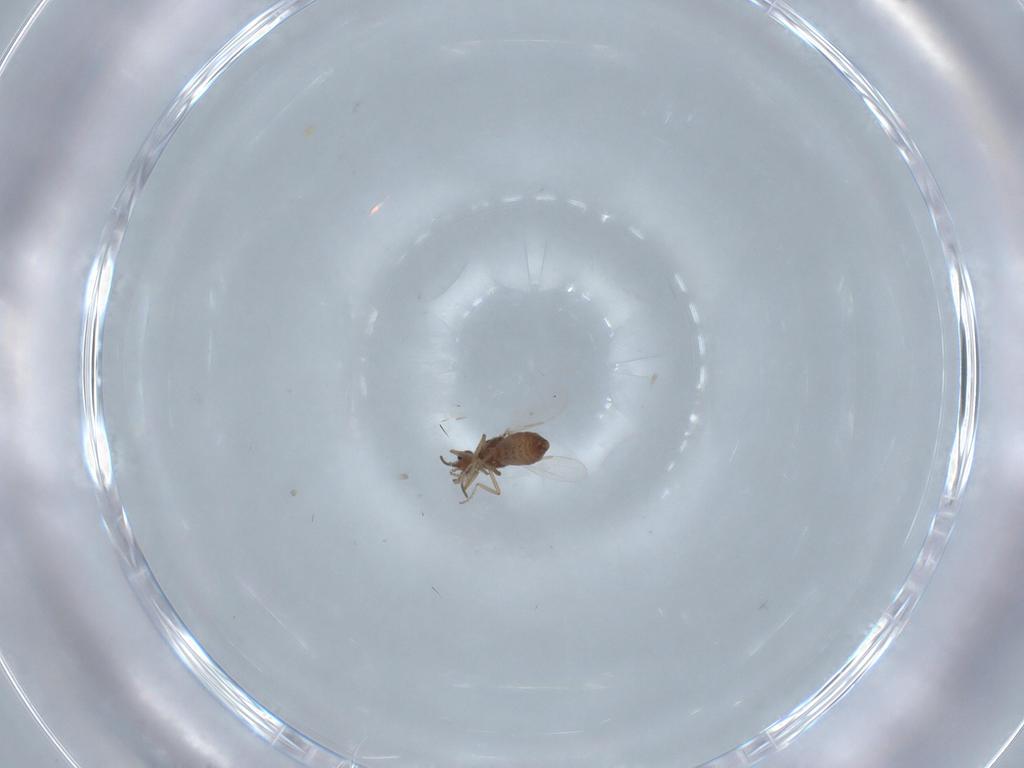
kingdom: Animalia
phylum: Arthropoda
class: Insecta
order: Diptera
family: Ceratopogonidae
